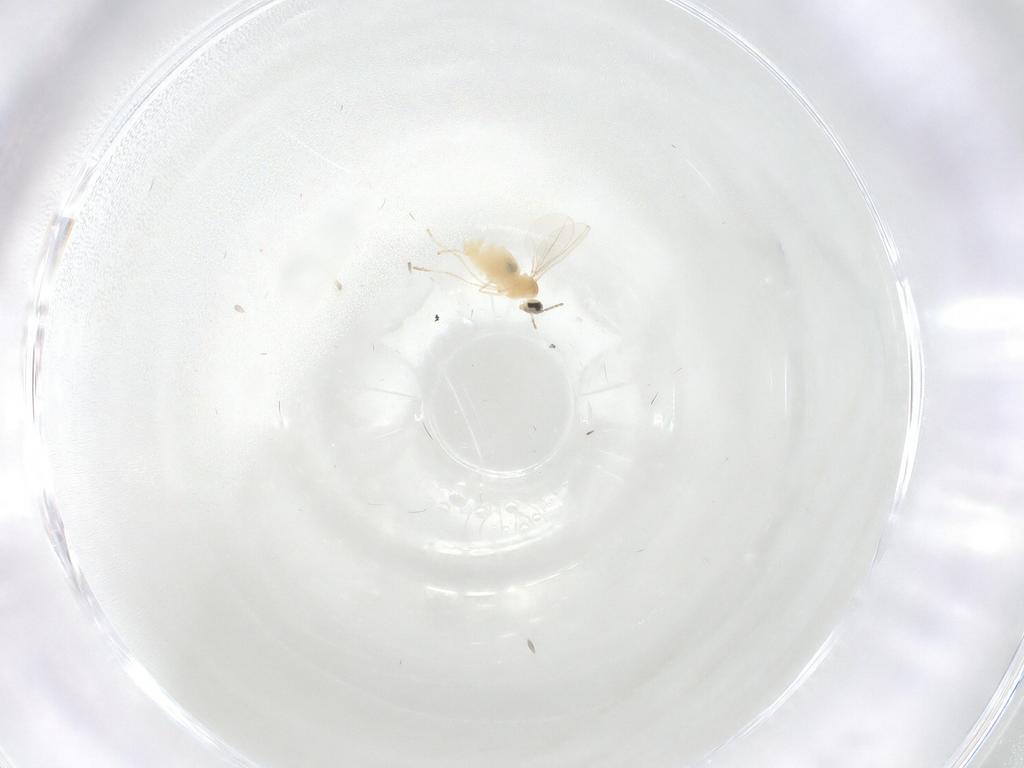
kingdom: Animalia
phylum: Arthropoda
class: Insecta
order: Diptera
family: Cecidomyiidae
